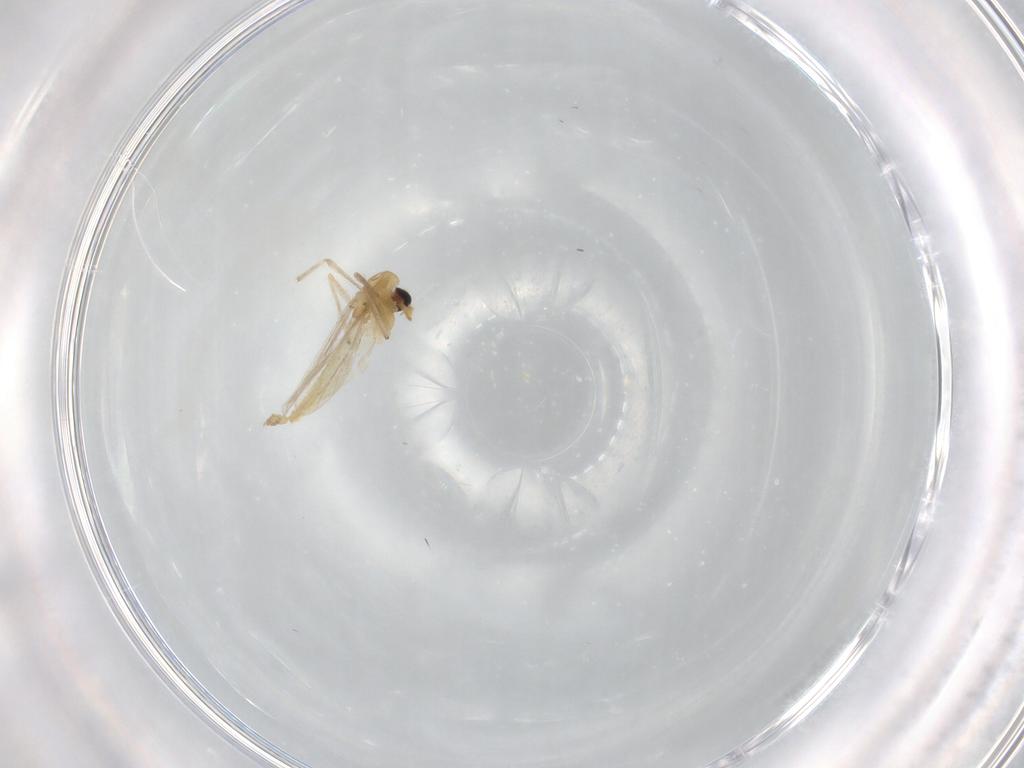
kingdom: Animalia
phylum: Arthropoda
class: Insecta
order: Diptera
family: Chironomidae
